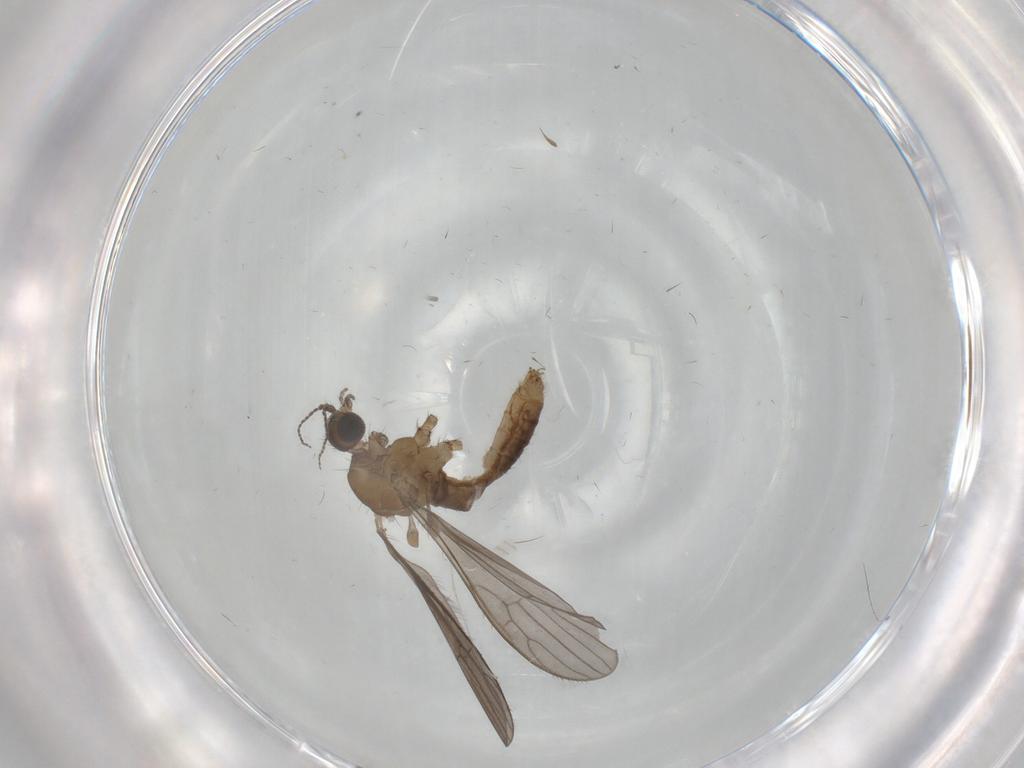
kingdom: Animalia
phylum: Arthropoda
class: Insecta
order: Diptera
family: Chironomidae
